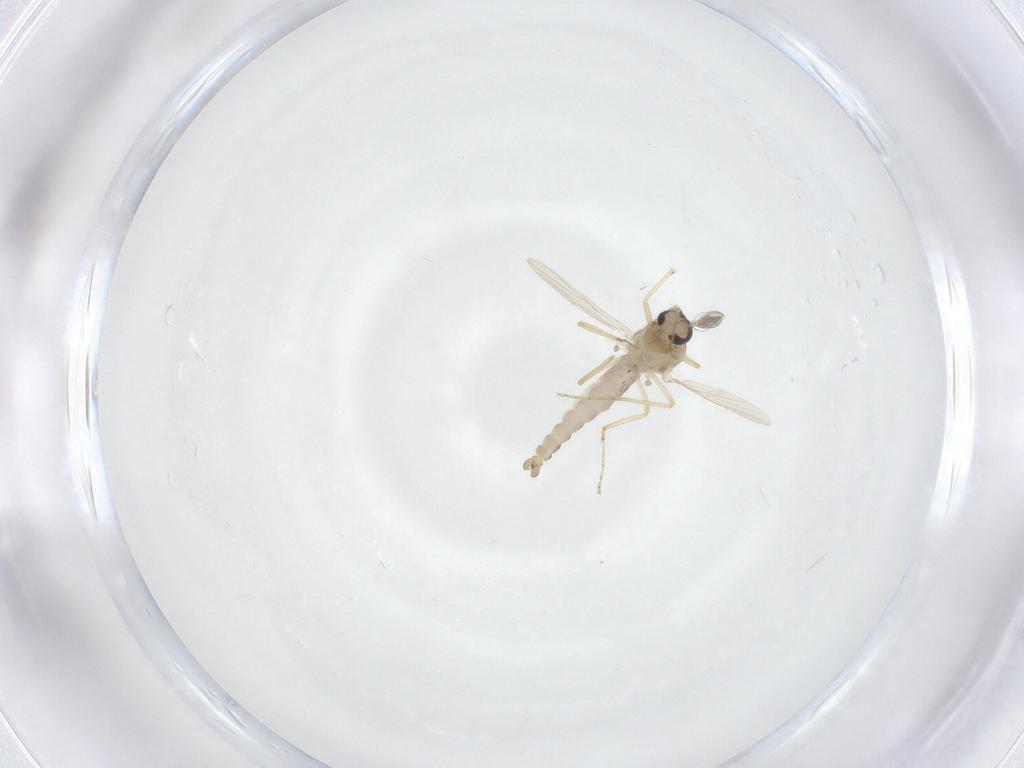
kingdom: Animalia
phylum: Arthropoda
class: Insecta
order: Diptera
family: Ceratopogonidae
